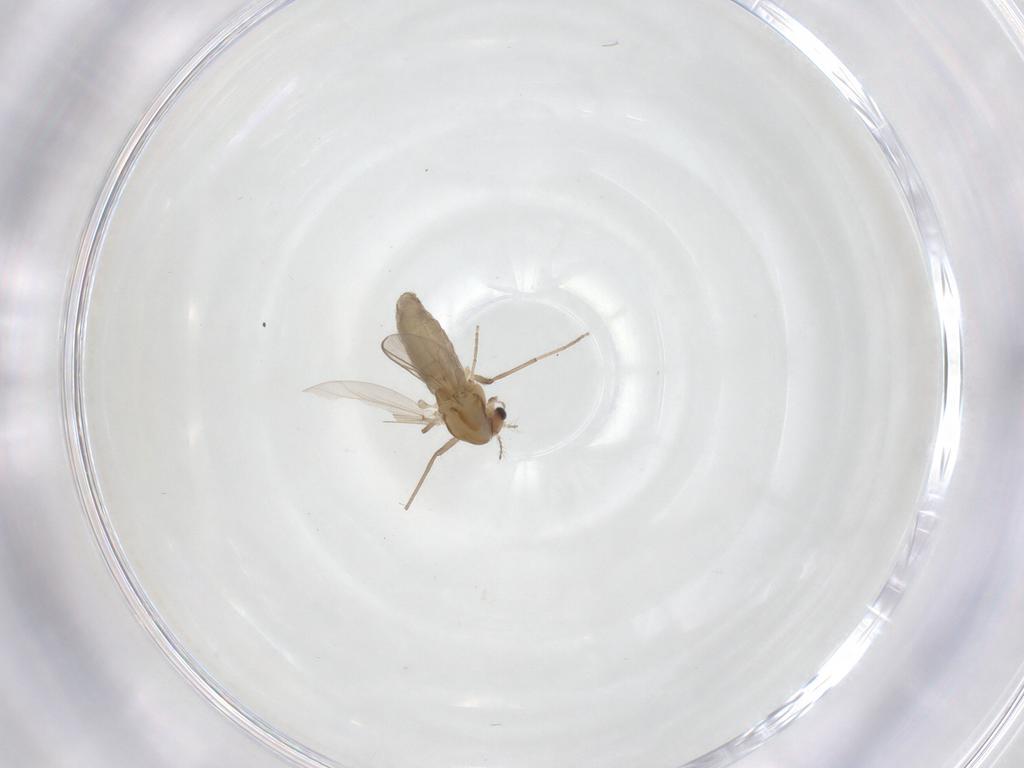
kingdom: Animalia
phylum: Arthropoda
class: Insecta
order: Diptera
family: Chironomidae
